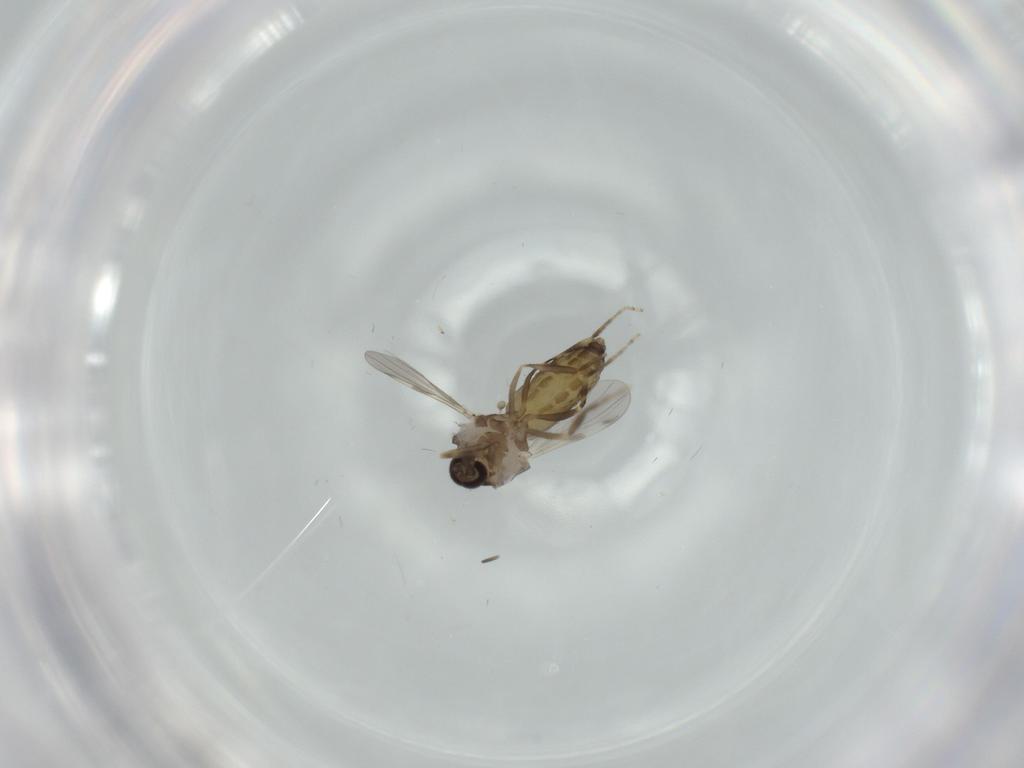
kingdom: Animalia
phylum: Arthropoda
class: Insecta
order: Diptera
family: Ceratopogonidae
